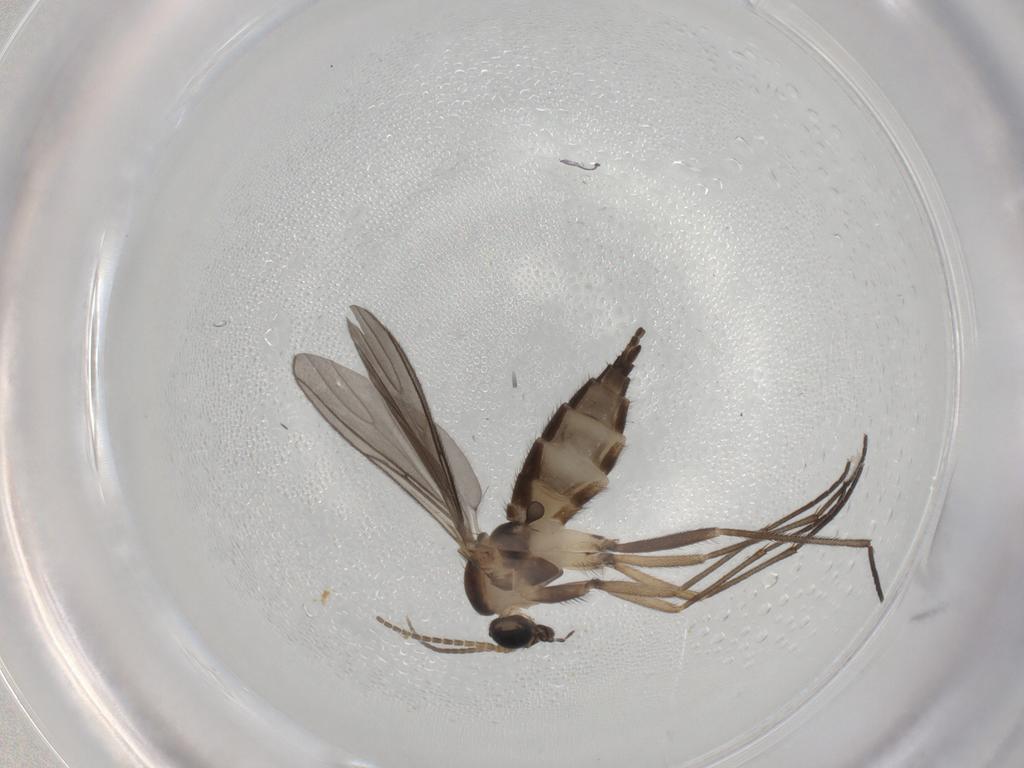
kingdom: Animalia
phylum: Arthropoda
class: Insecta
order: Diptera
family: Sciaridae
